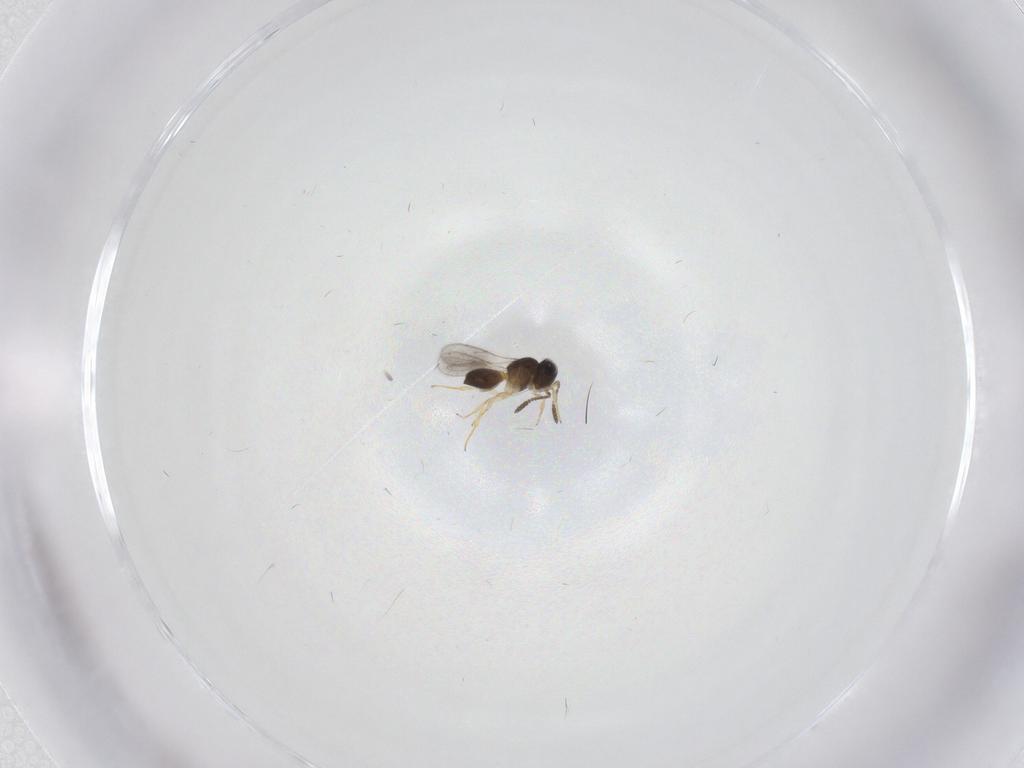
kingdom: Animalia
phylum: Arthropoda
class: Insecta
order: Hymenoptera
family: Scelionidae
